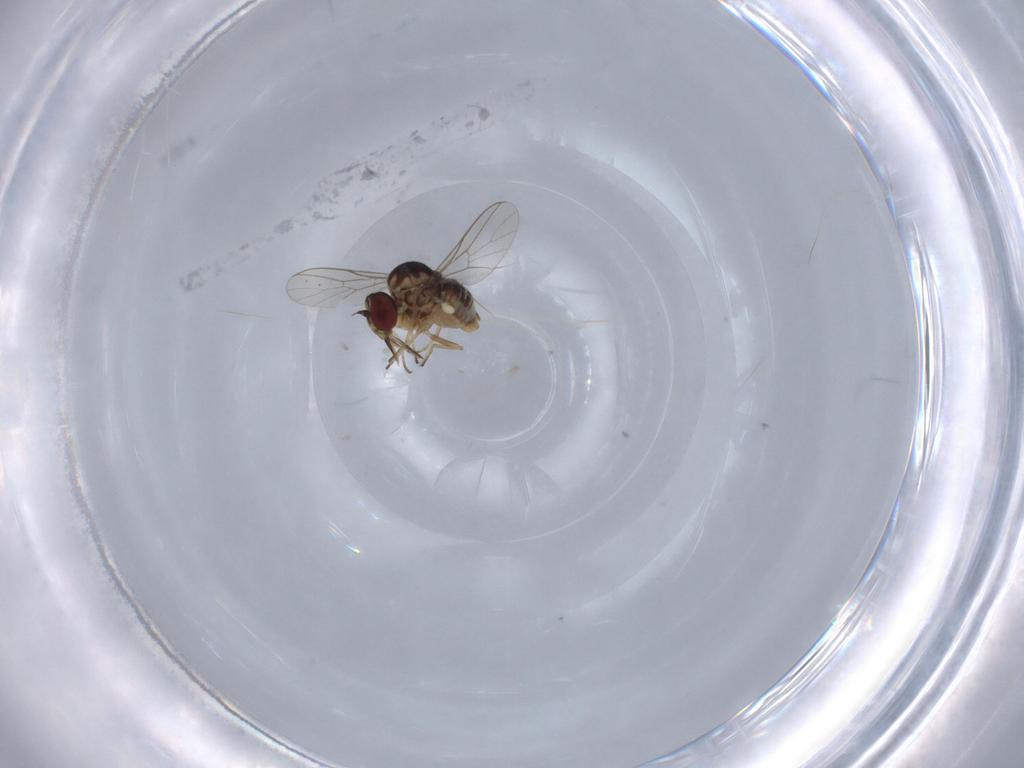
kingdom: Animalia
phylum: Arthropoda
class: Insecta
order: Diptera
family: Mythicomyiidae
